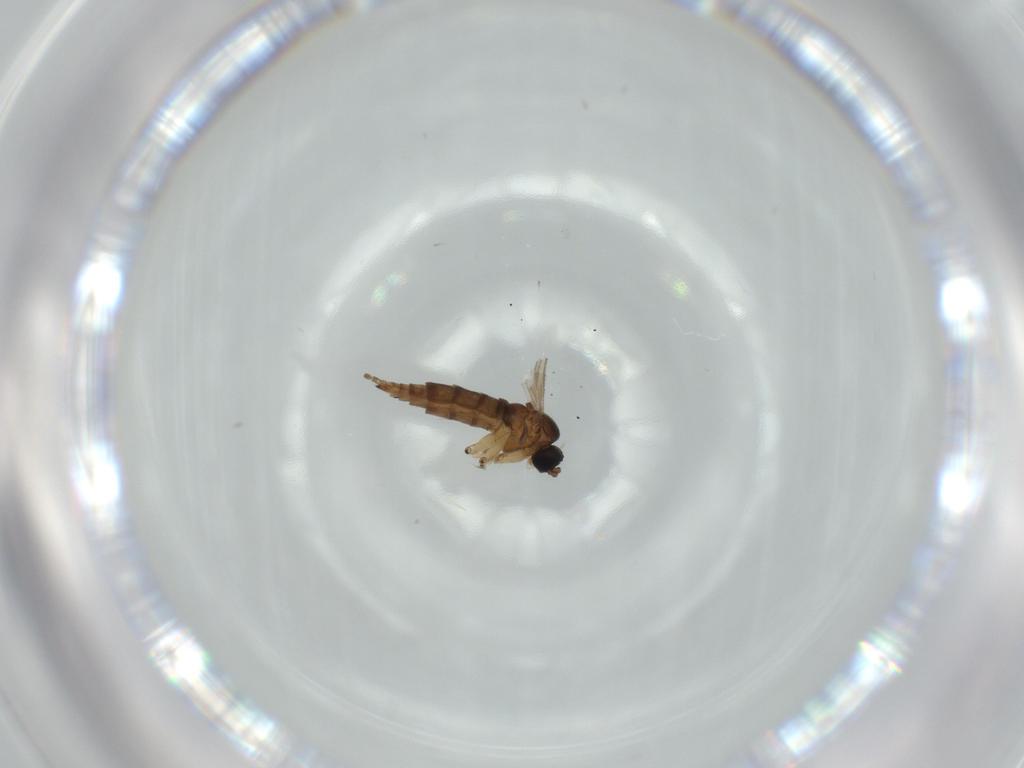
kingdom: Animalia
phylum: Arthropoda
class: Insecta
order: Diptera
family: Sciaridae
